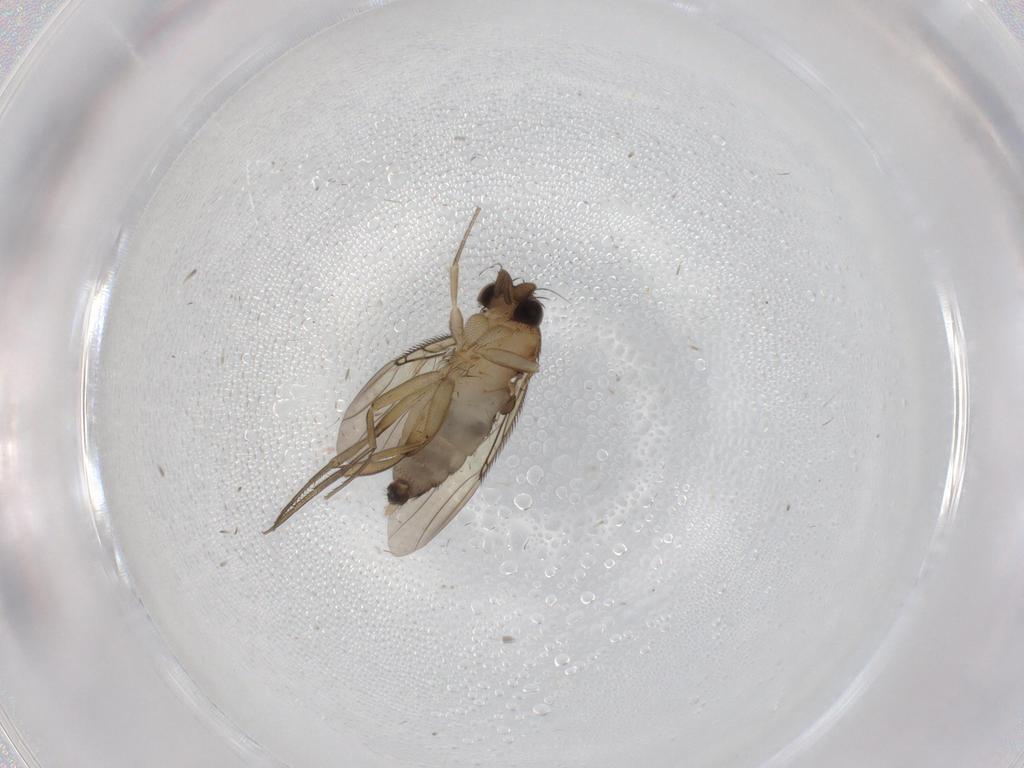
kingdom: Animalia
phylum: Arthropoda
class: Insecta
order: Diptera
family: Phoridae
